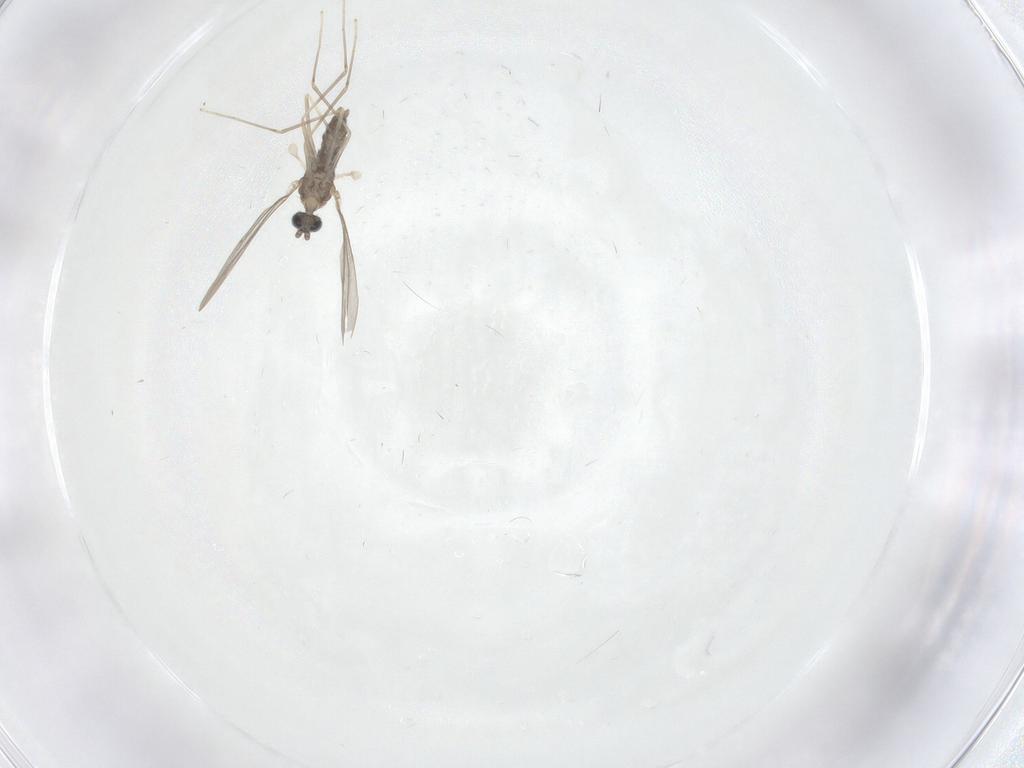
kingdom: Animalia
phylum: Arthropoda
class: Insecta
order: Diptera
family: Cecidomyiidae
